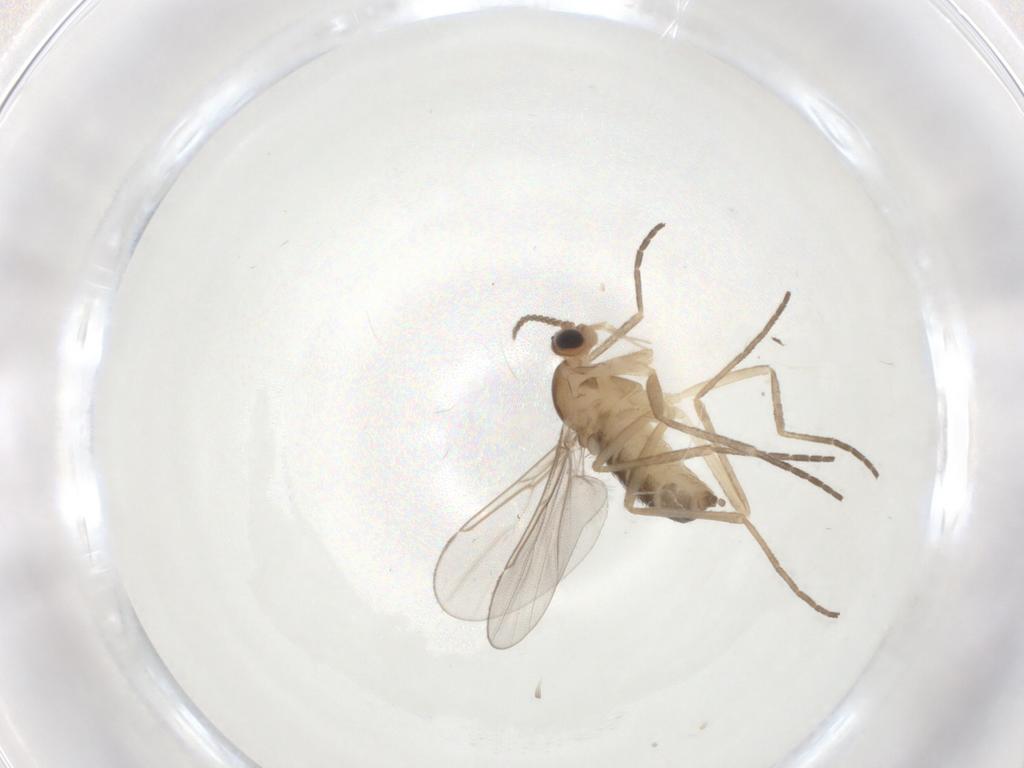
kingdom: Animalia
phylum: Arthropoda
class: Insecta
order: Diptera
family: Cecidomyiidae
